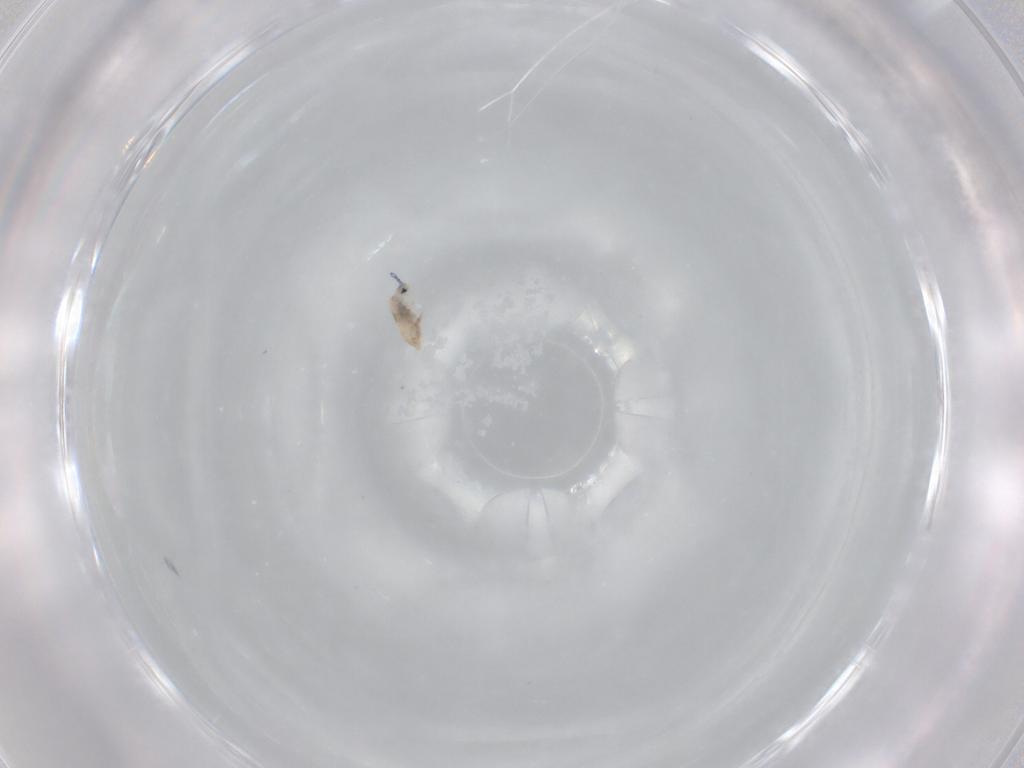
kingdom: Animalia
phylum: Arthropoda
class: Collembola
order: Entomobryomorpha
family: Entomobryidae
